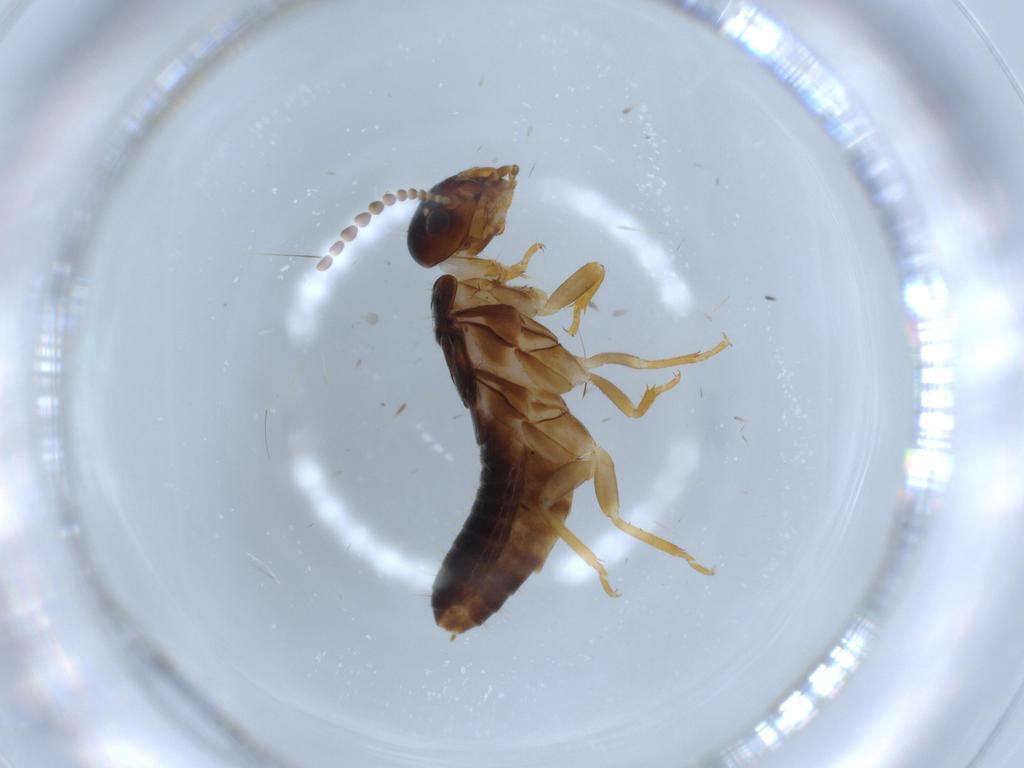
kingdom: Animalia
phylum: Arthropoda
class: Insecta
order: Blattodea
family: Kalotermitidae
